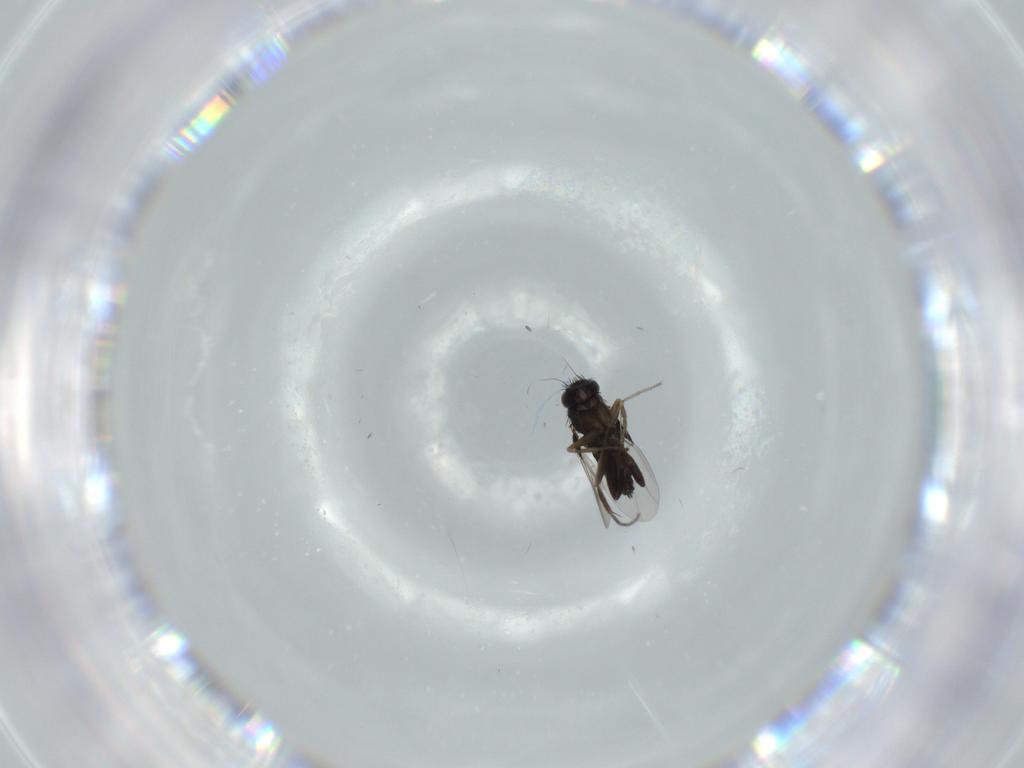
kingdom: Animalia
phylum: Arthropoda
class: Insecta
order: Diptera
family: Phoridae
